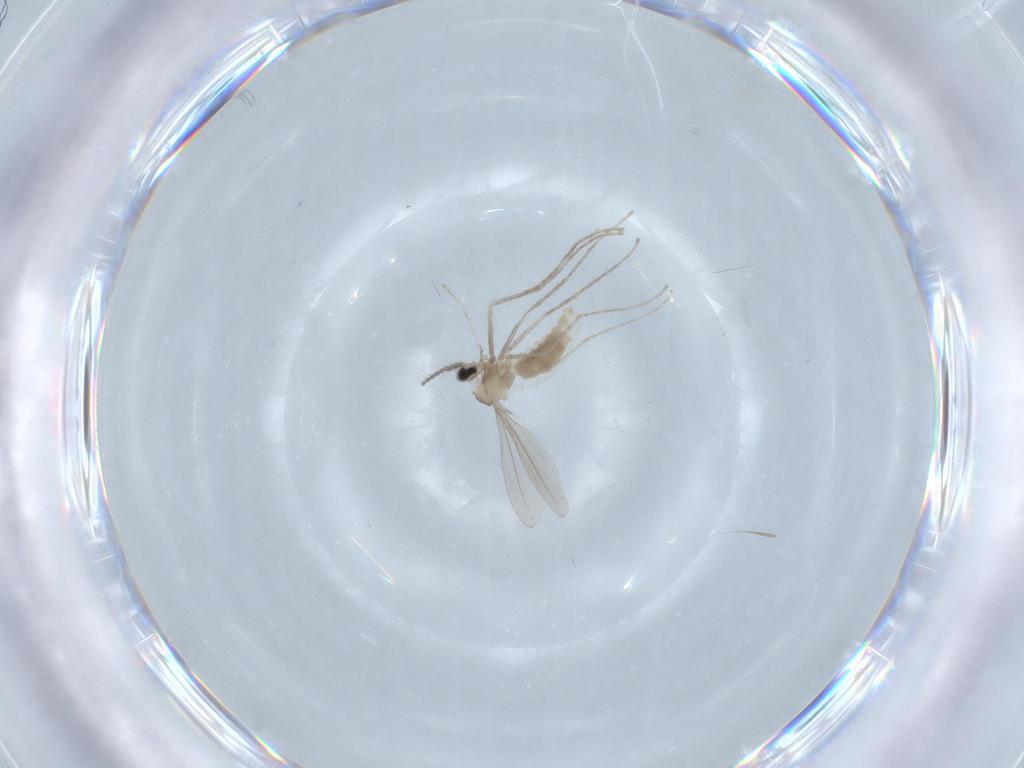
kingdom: Animalia
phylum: Arthropoda
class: Insecta
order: Diptera
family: Cecidomyiidae
